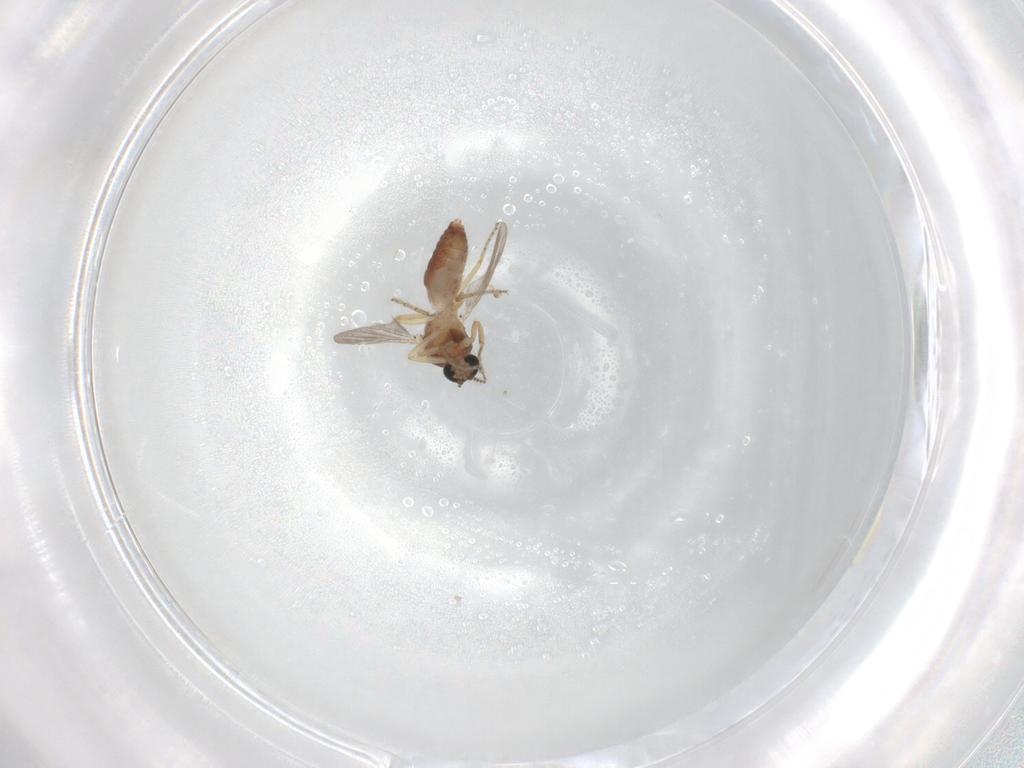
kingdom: Animalia
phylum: Arthropoda
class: Insecta
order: Diptera
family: Ceratopogonidae
